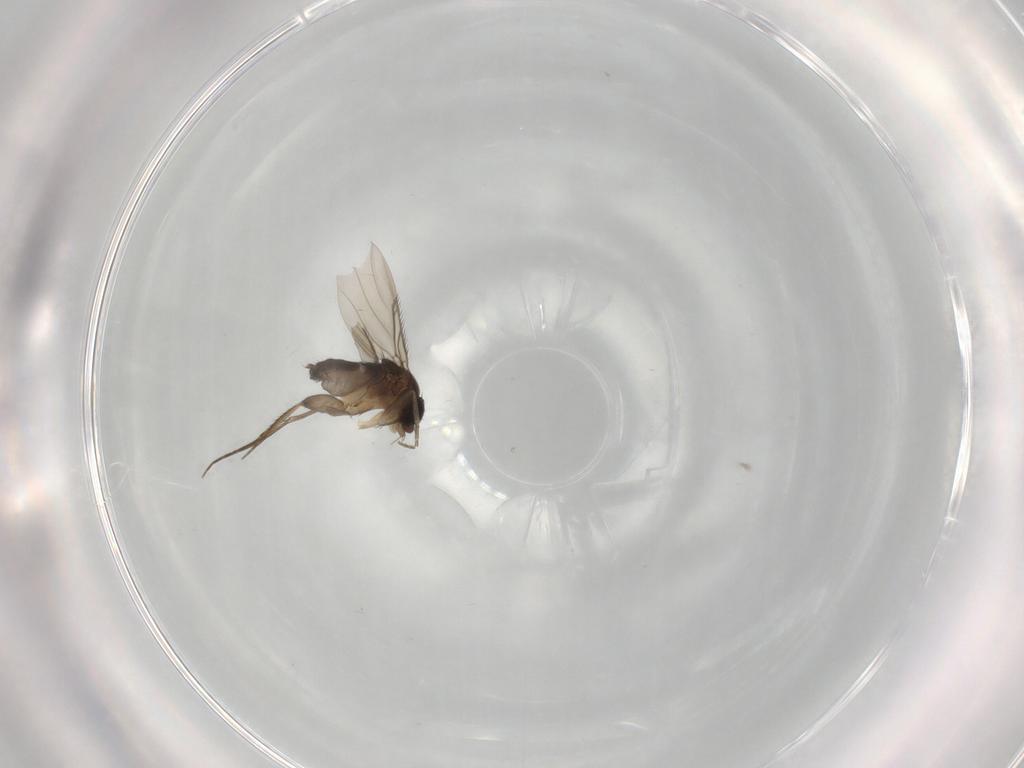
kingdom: Animalia
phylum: Arthropoda
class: Insecta
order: Diptera
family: Phoridae
